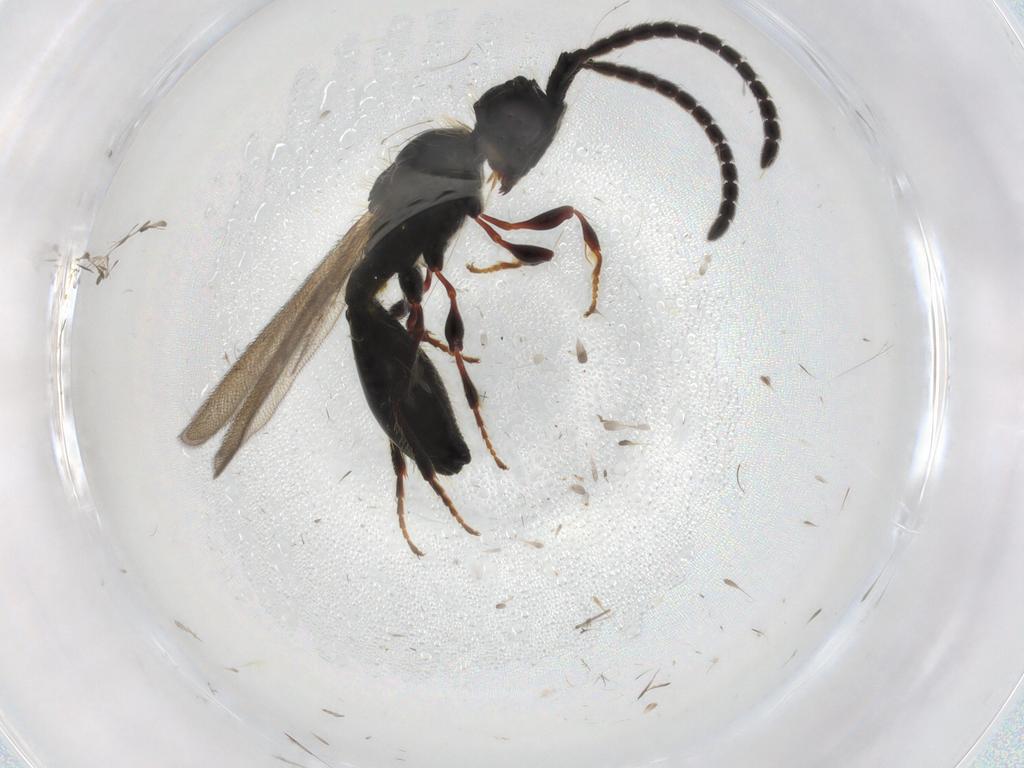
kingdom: Animalia
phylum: Arthropoda
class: Insecta
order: Hymenoptera
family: Diapriidae
